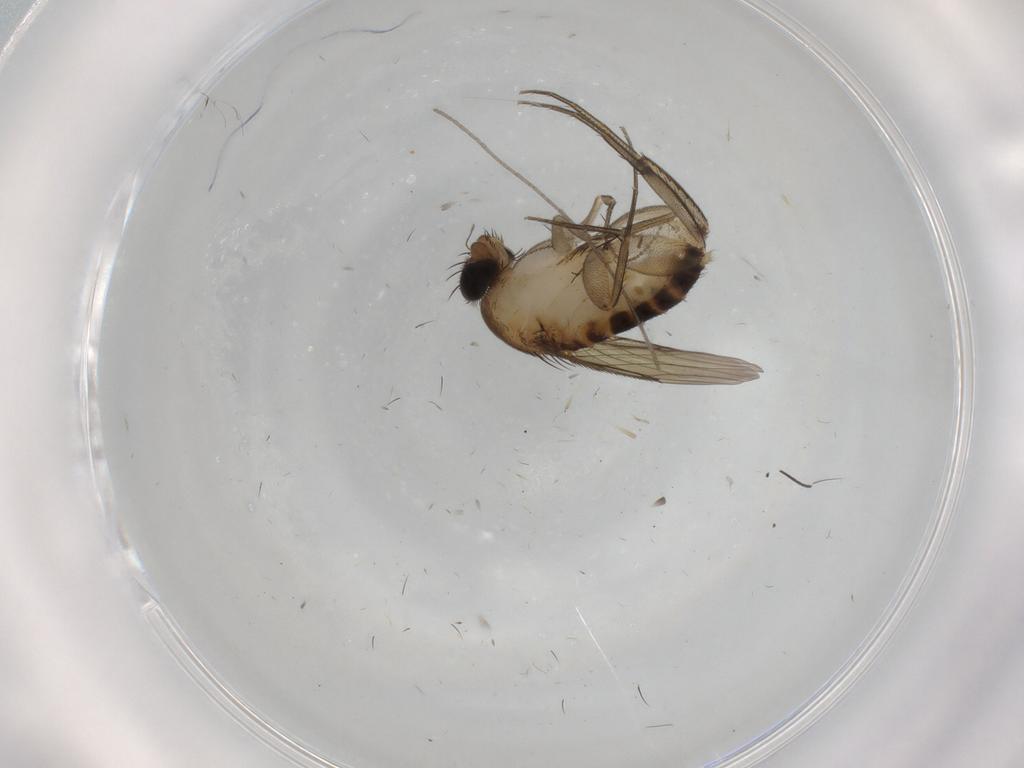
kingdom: Animalia
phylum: Arthropoda
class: Insecta
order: Diptera
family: Phoridae
